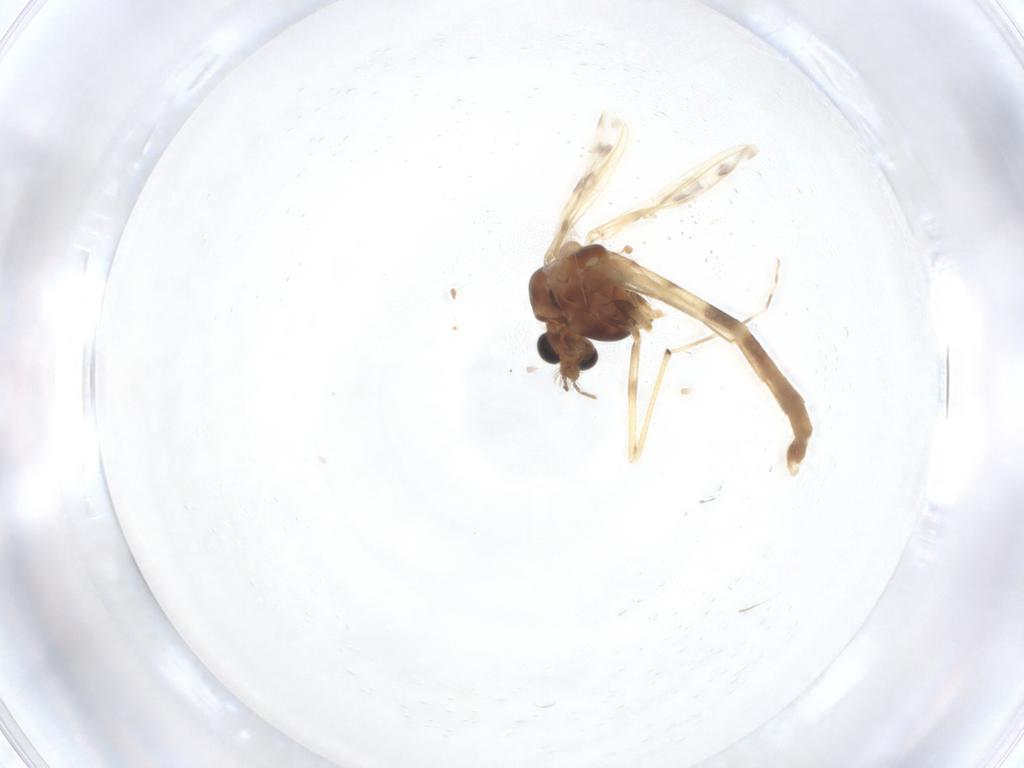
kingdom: Animalia
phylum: Arthropoda
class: Insecta
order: Diptera
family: Chironomidae
